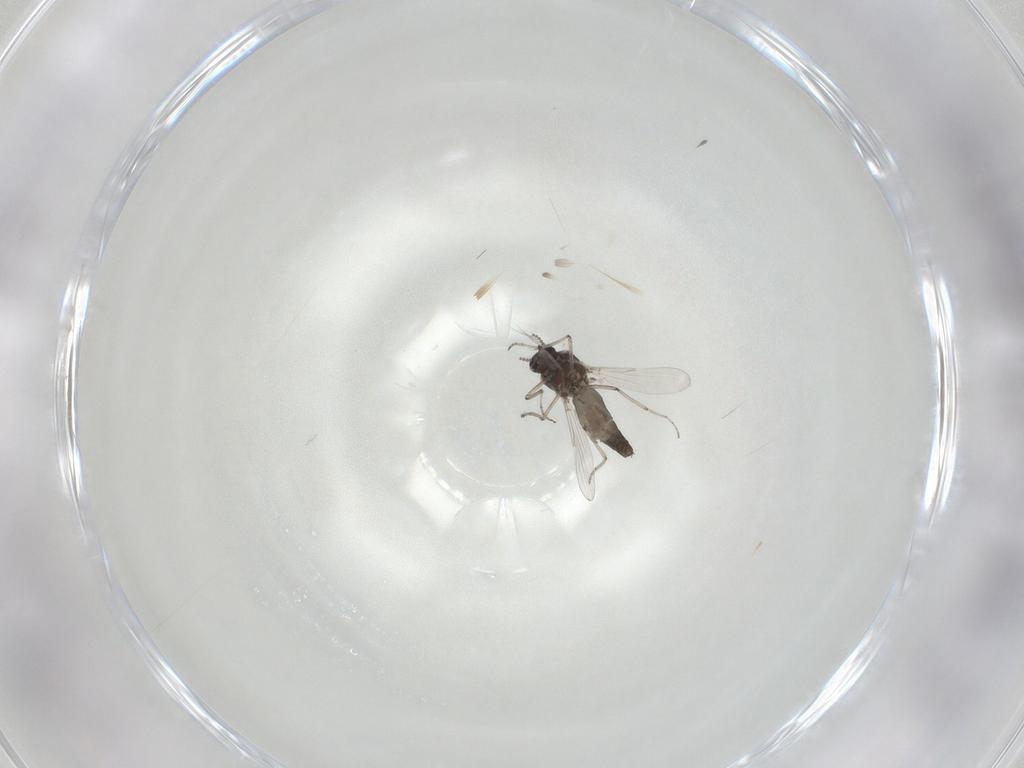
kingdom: Animalia
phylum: Arthropoda
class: Insecta
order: Diptera
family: Ceratopogonidae
